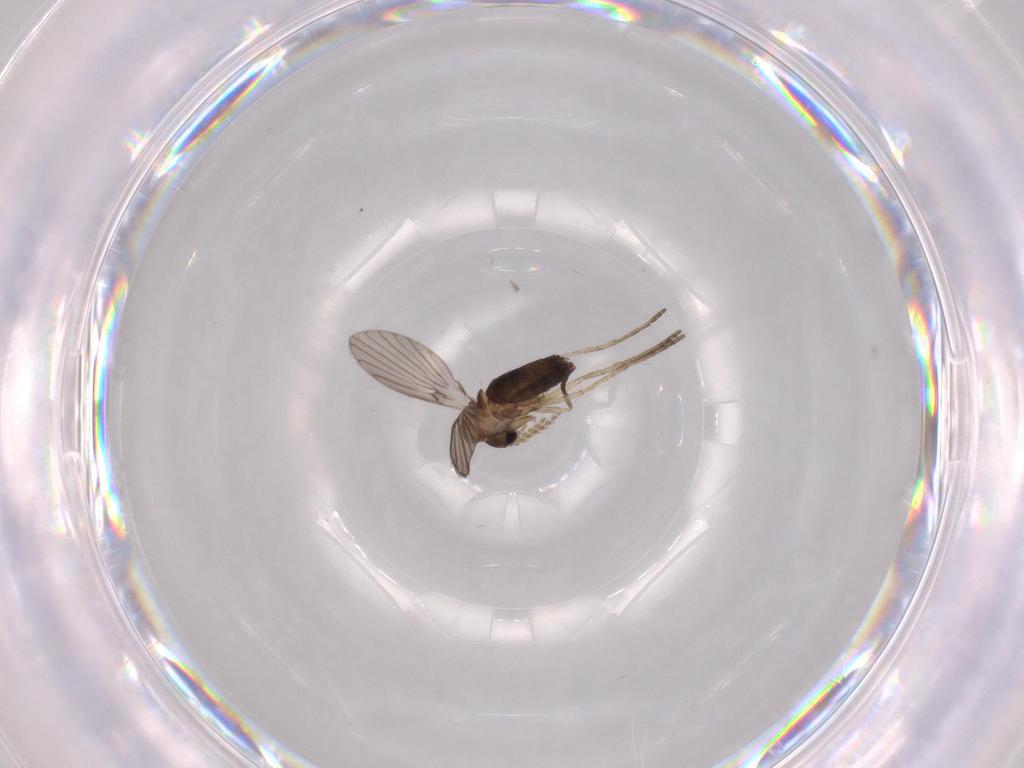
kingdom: Animalia
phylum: Arthropoda
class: Insecta
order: Diptera
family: Psychodidae
